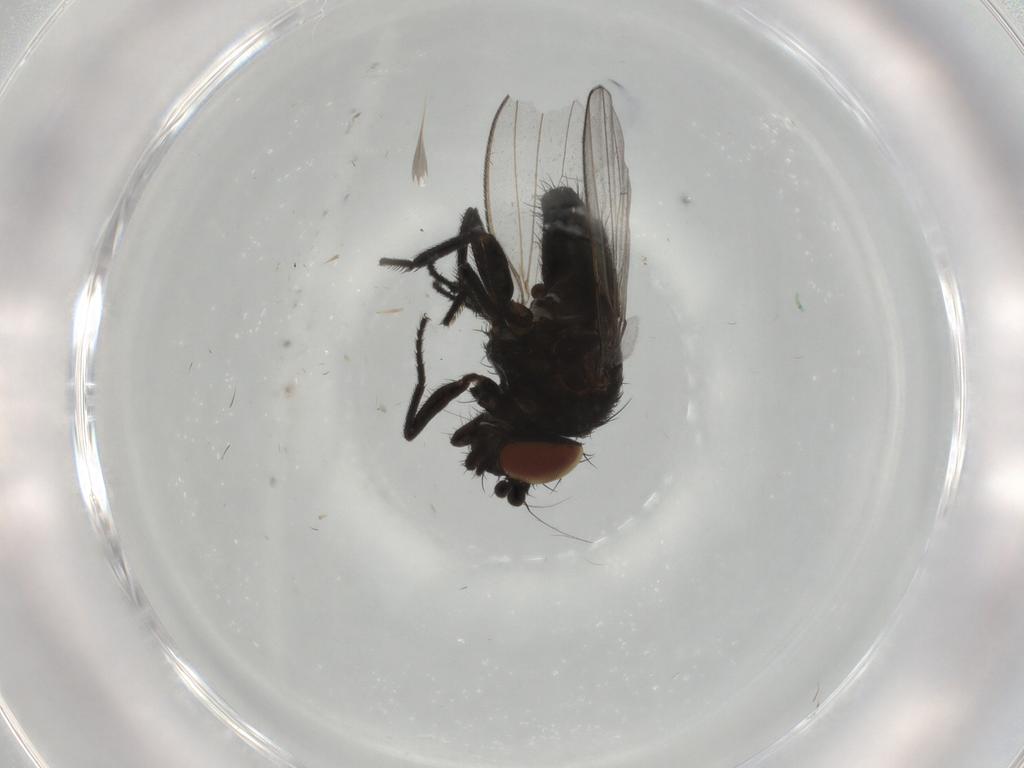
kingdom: Animalia
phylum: Arthropoda
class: Insecta
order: Diptera
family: Milichiidae
